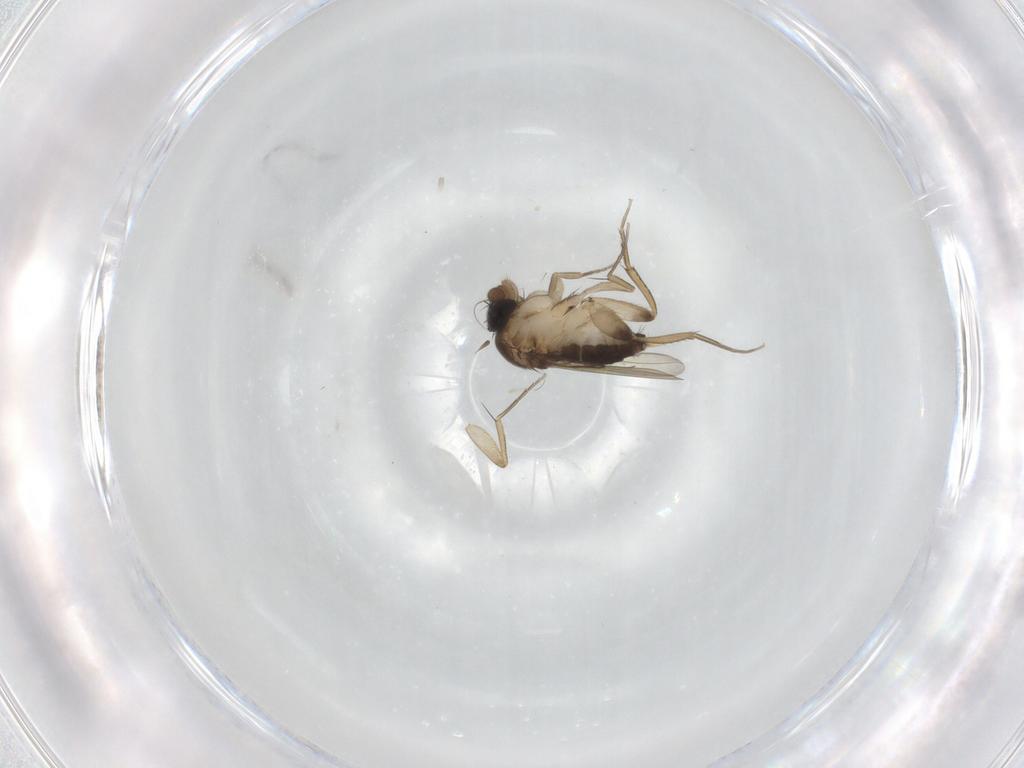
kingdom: Animalia
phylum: Arthropoda
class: Insecta
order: Diptera
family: Phoridae
